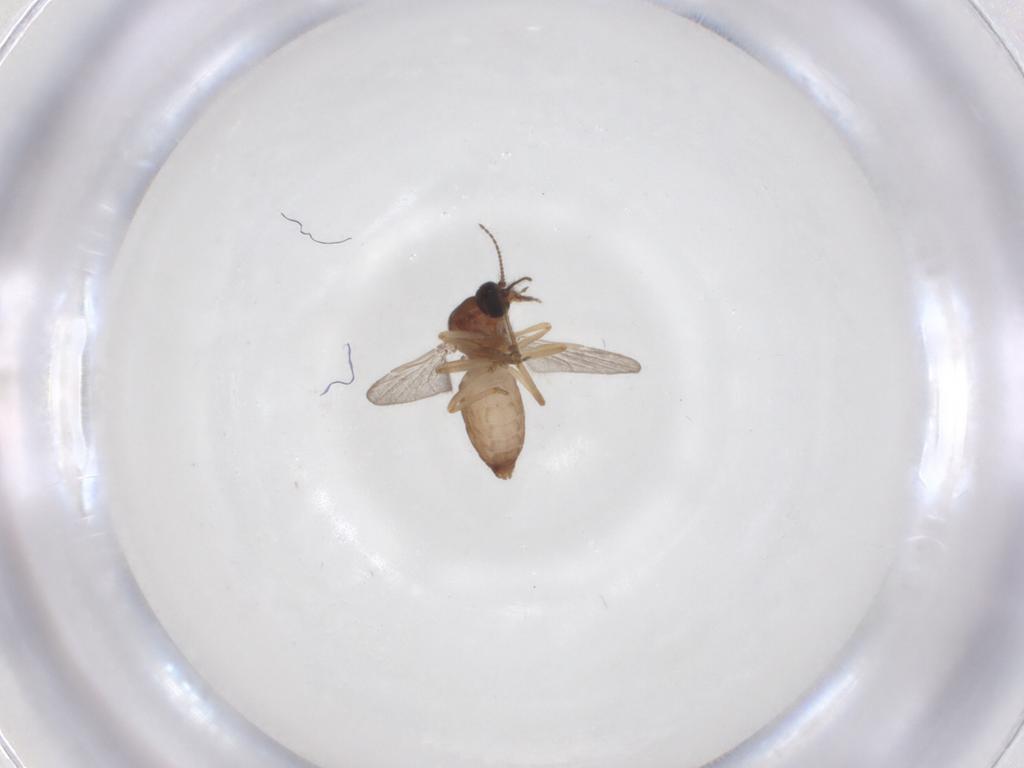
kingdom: Animalia
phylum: Arthropoda
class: Insecta
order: Diptera
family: Ceratopogonidae
